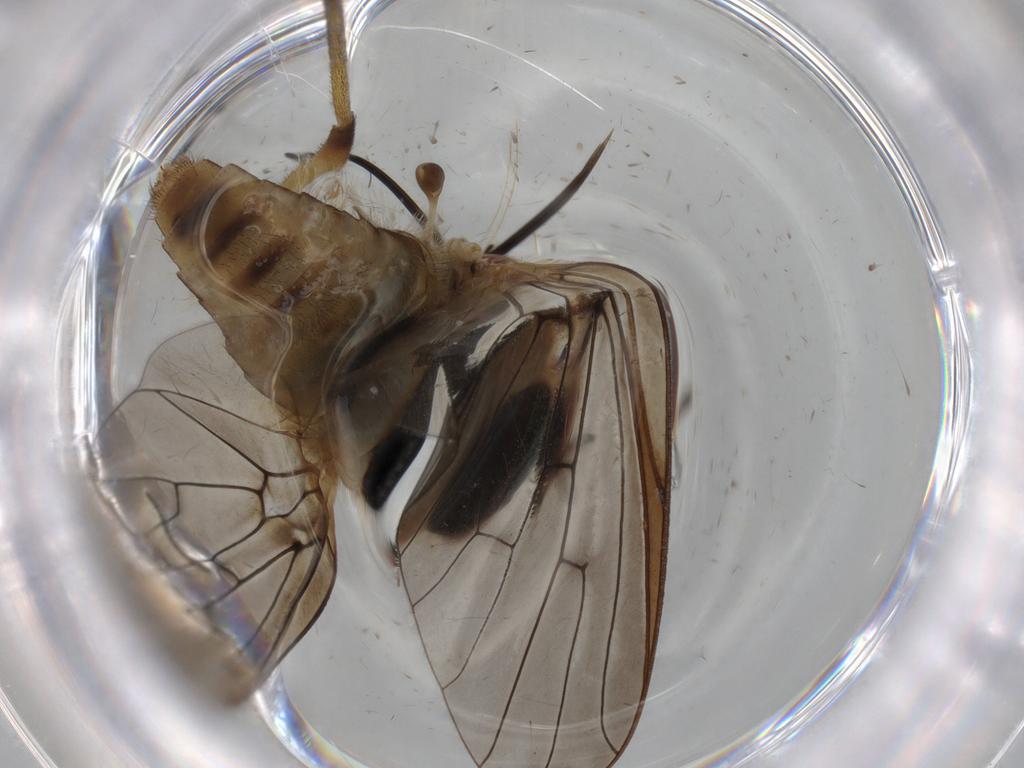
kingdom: Animalia
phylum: Arthropoda
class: Insecta
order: Diptera
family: Bombyliidae
